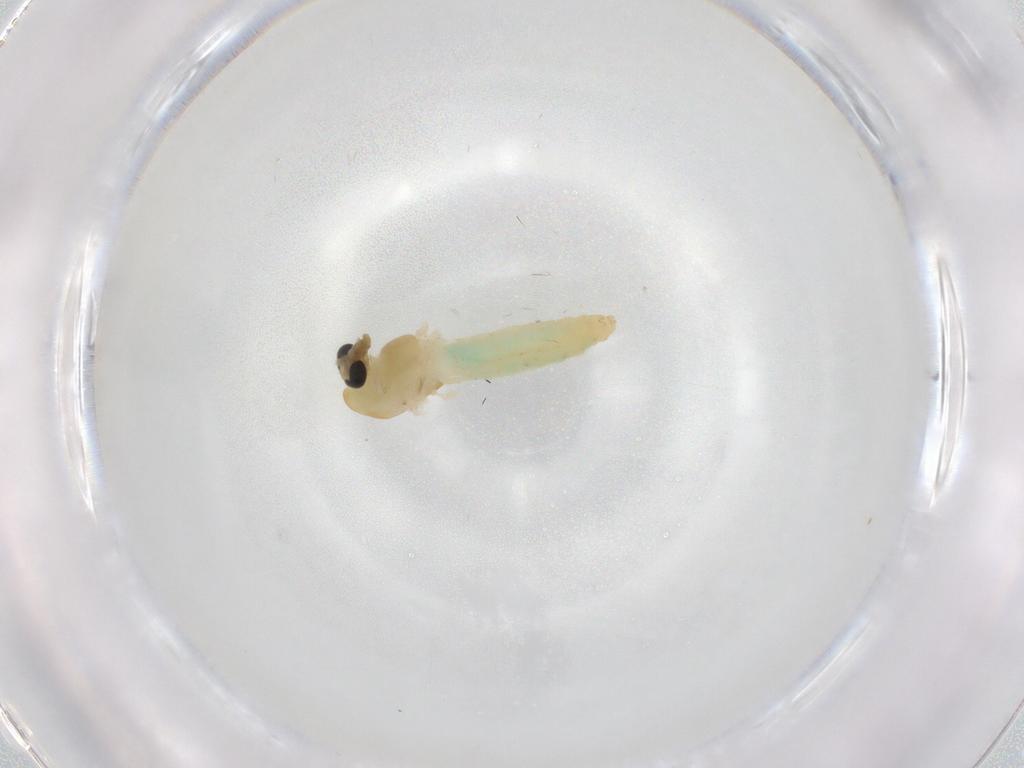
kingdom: Animalia
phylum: Arthropoda
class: Insecta
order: Diptera
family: Chironomidae
